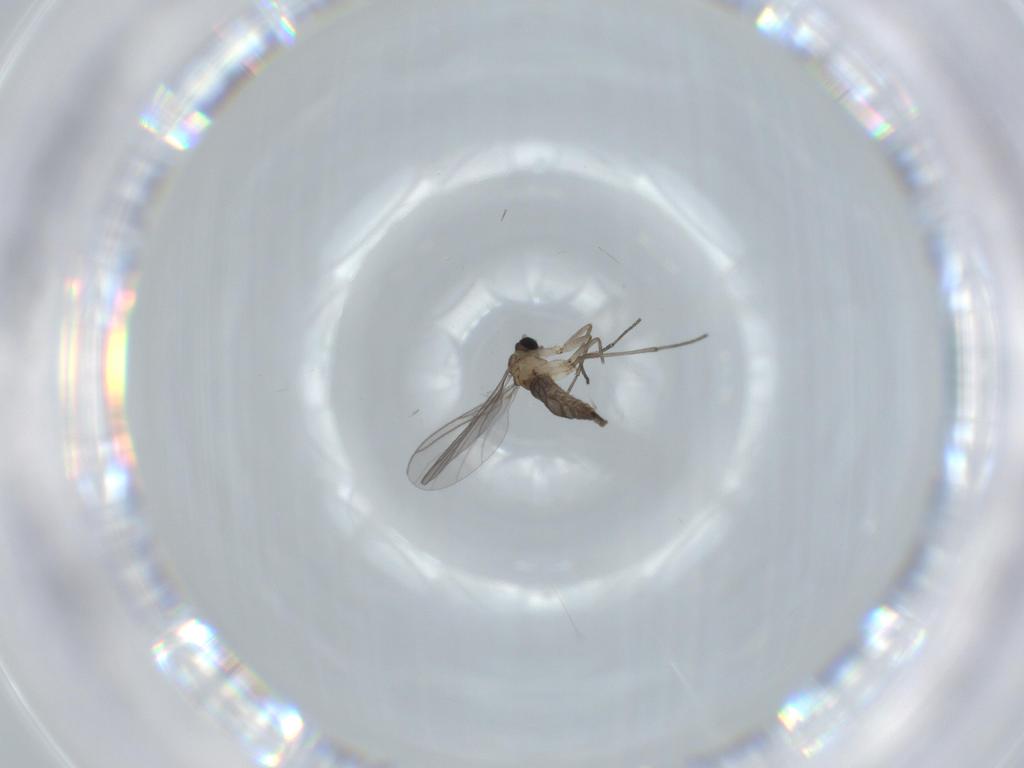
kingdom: Animalia
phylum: Arthropoda
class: Insecta
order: Diptera
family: Sciaridae
